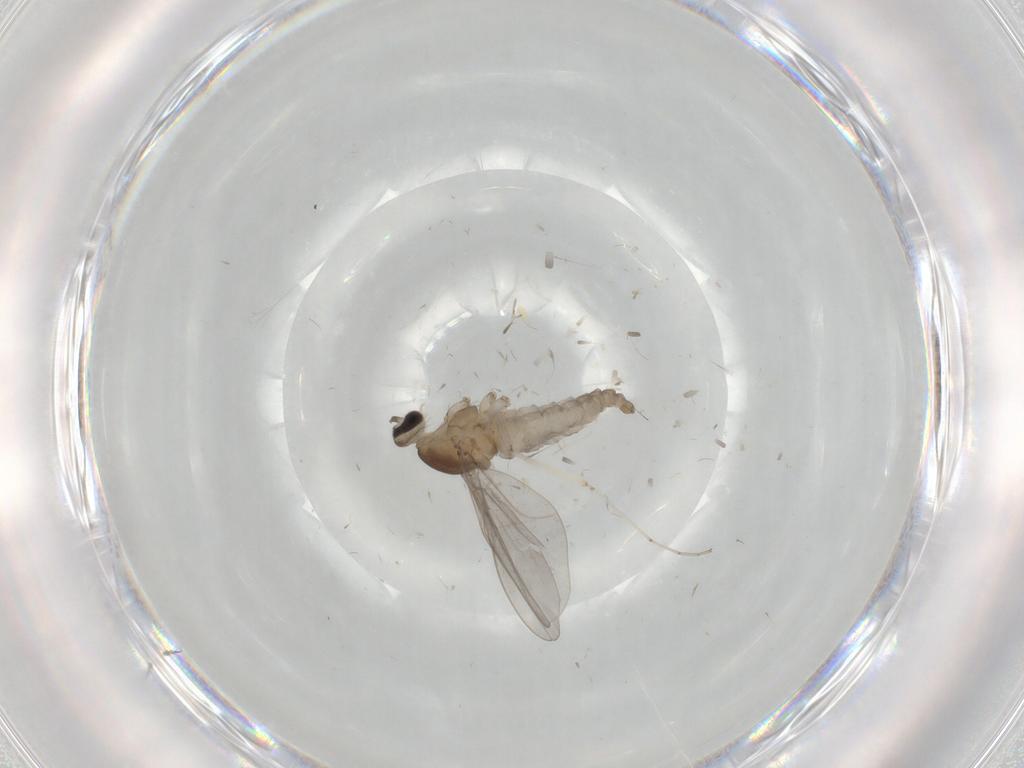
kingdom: Animalia
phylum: Arthropoda
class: Insecta
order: Diptera
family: Cecidomyiidae
